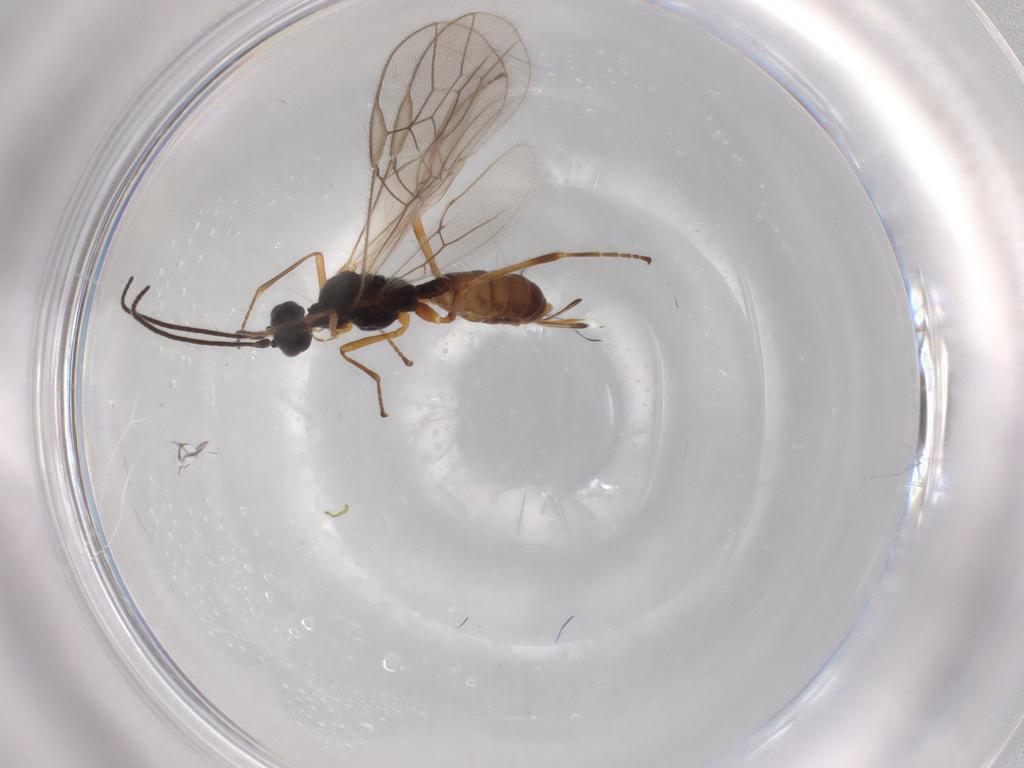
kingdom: Animalia
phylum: Arthropoda
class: Insecta
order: Hymenoptera
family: Braconidae
